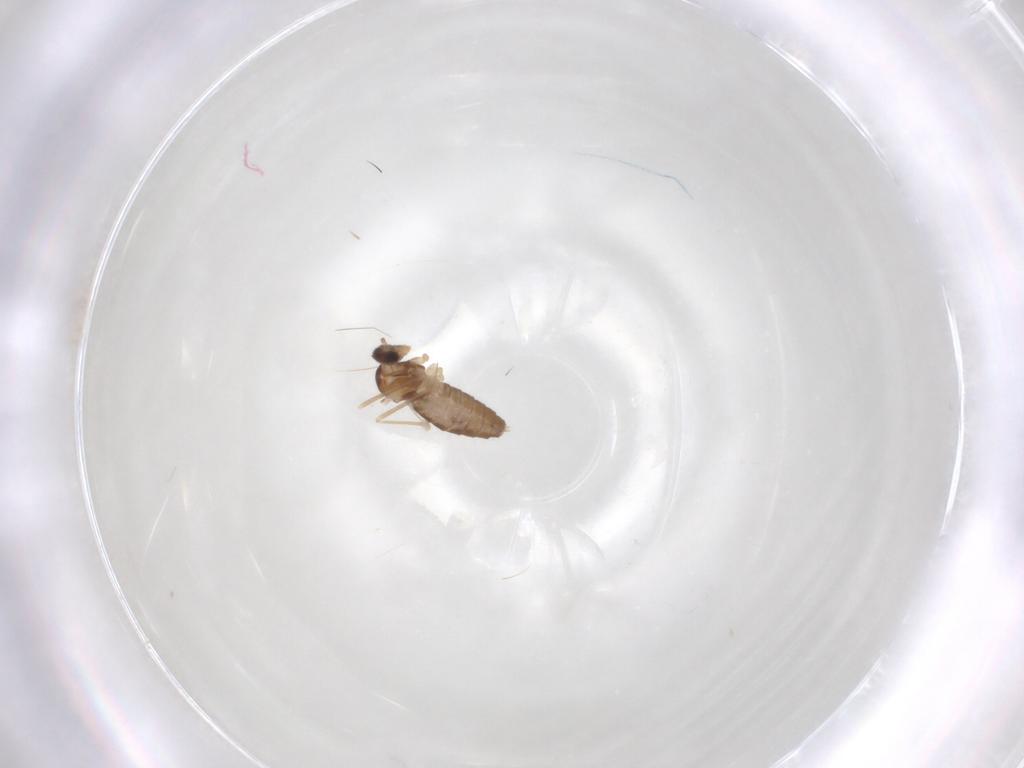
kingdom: Animalia
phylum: Arthropoda
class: Insecta
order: Diptera
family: Cecidomyiidae
